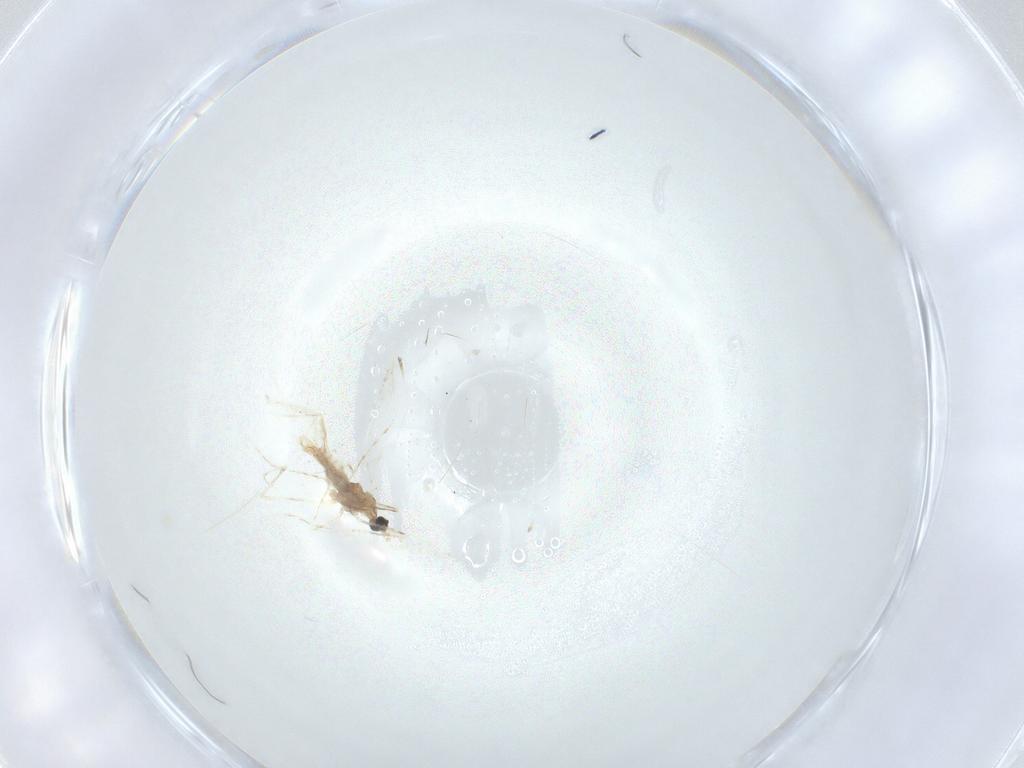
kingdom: Animalia
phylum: Arthropoda
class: Insecta
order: Diptera
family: Cecidomyiidae
